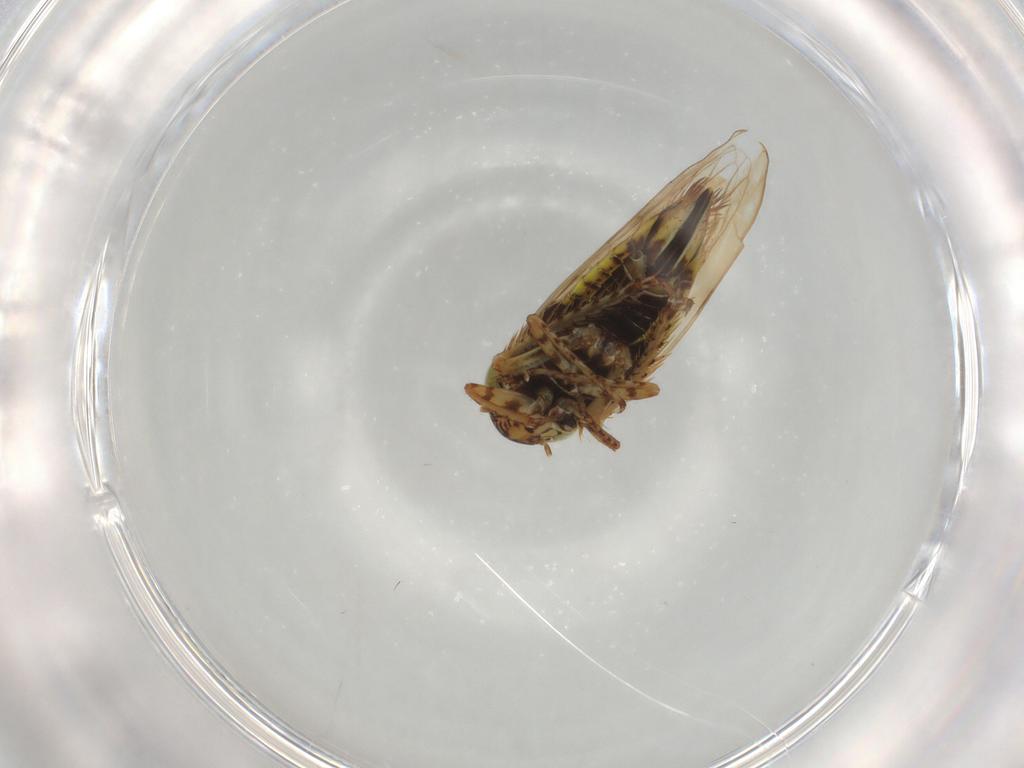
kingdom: Animalia
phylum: Arthropoda
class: Insecta
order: Hemiptera
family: Cicadellidae
